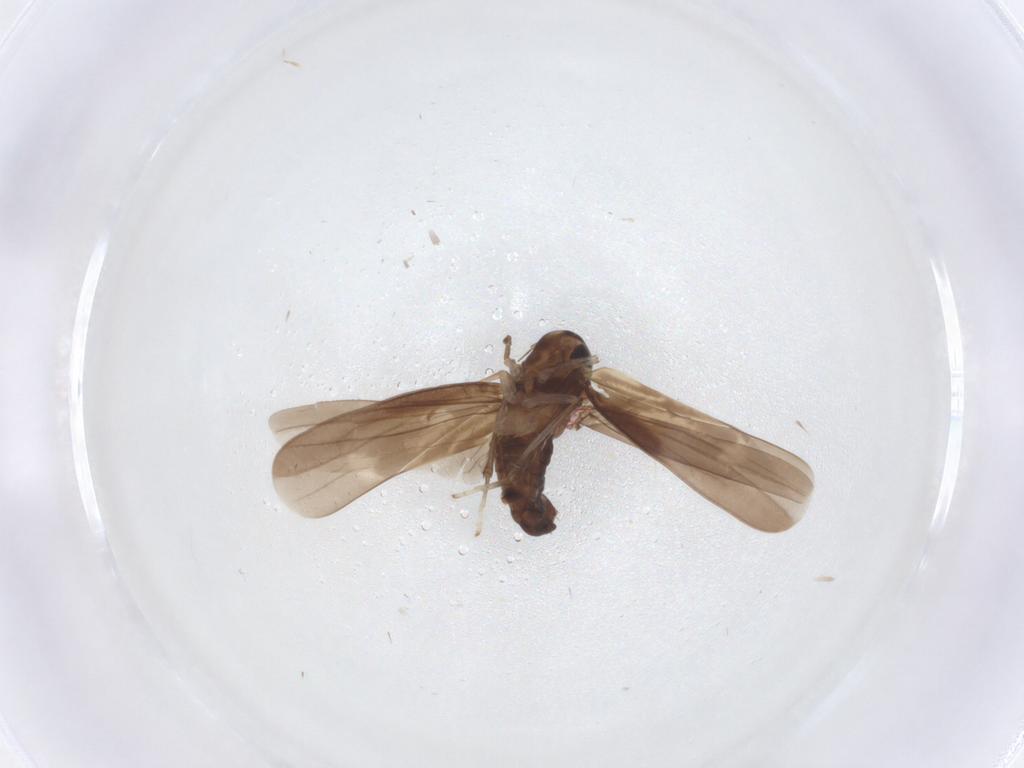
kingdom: Animalia
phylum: Arthropoda
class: Insecta
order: Hemiptera
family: Cicadellidae
